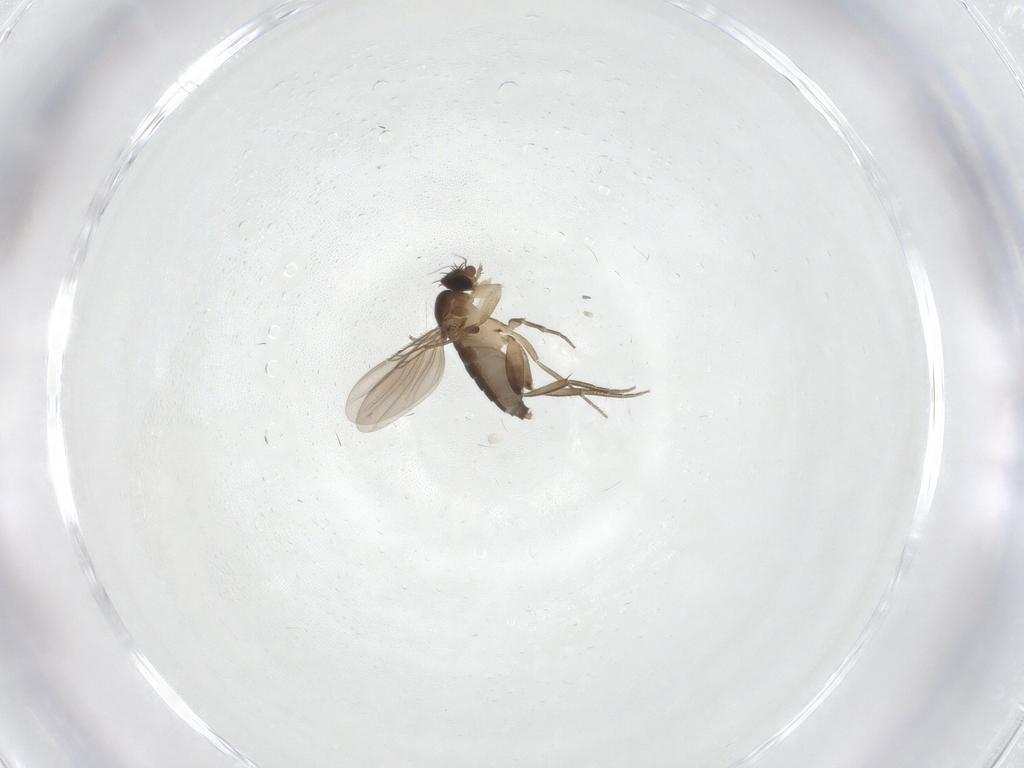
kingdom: Animalia
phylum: Arthropoda
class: Insecta
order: Diptera
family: Phoridae
